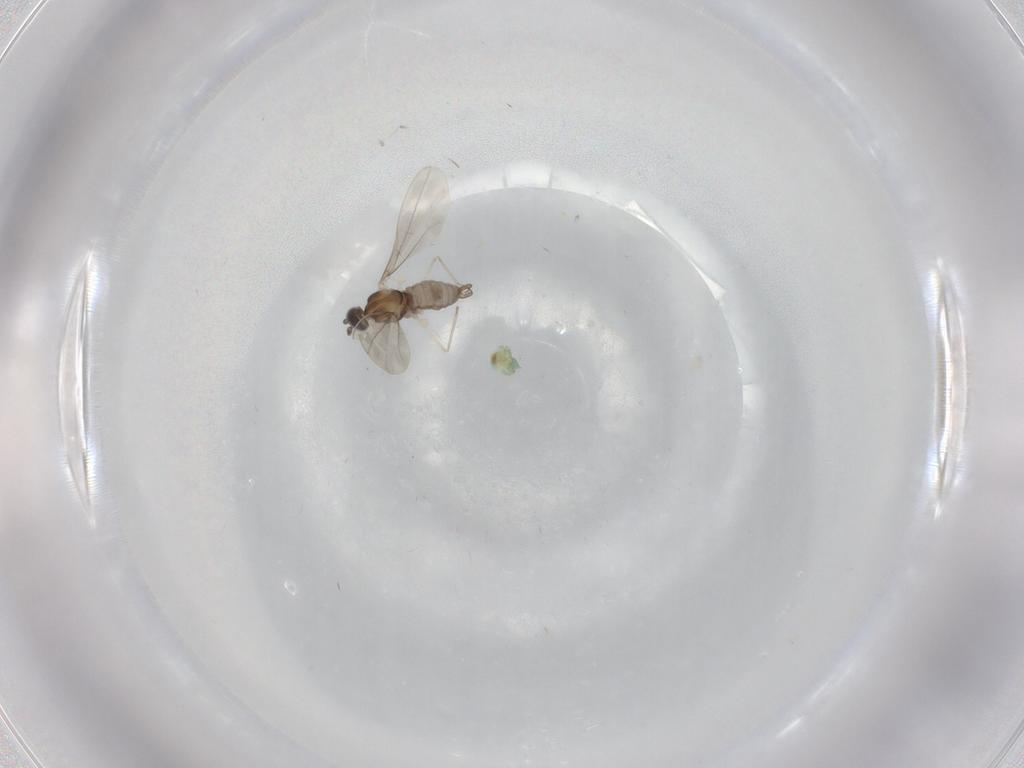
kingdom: Animalia
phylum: Arthropoda
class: Insecta
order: Diptera
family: Cecidomyiidae
